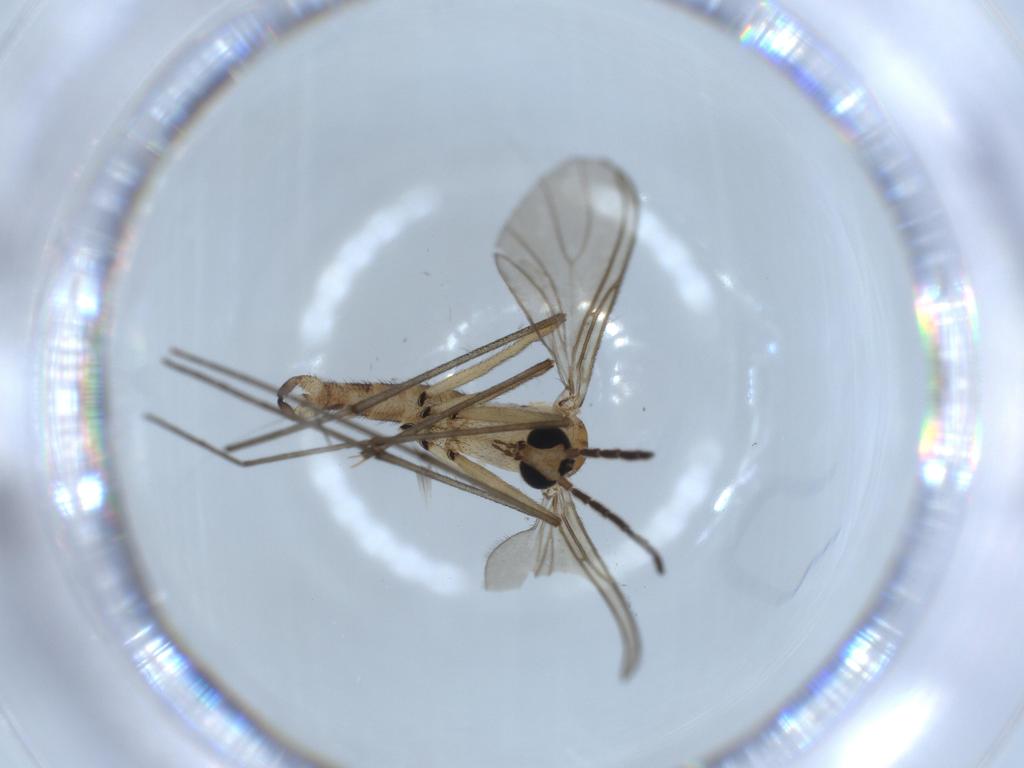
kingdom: Animalia
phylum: Arthropoda
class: Insecta
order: Diptera
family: Sciaridae
